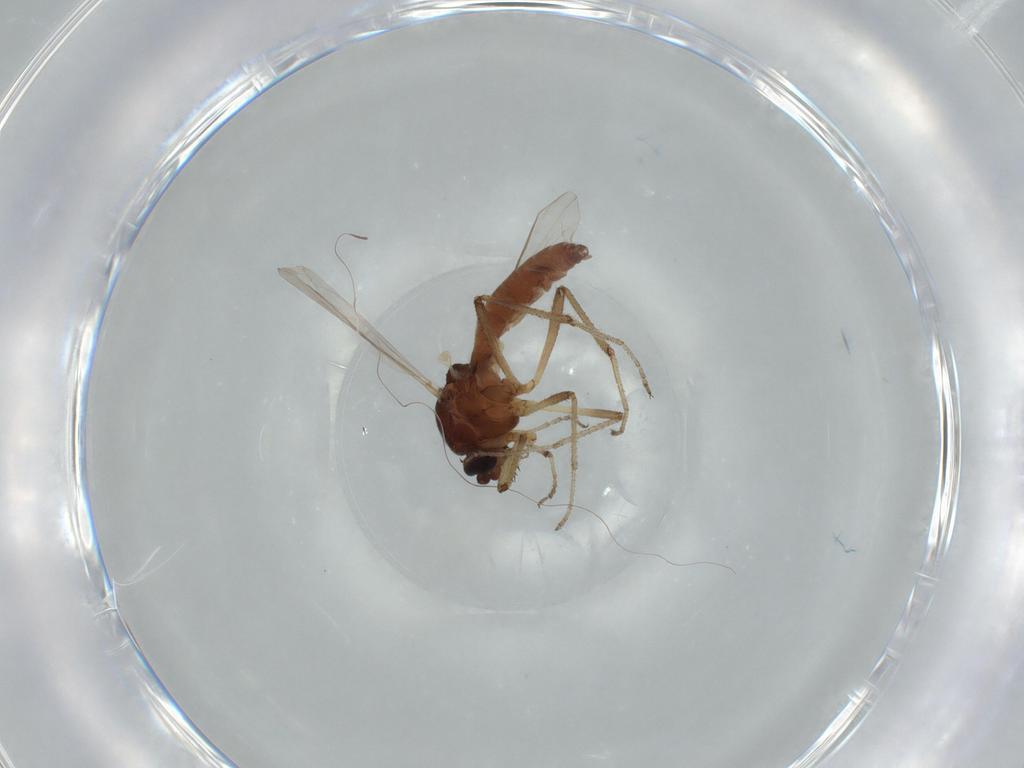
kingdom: Animalia
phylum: Arthropoda
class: Insecta
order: Diptera
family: Ceratopogonidae
